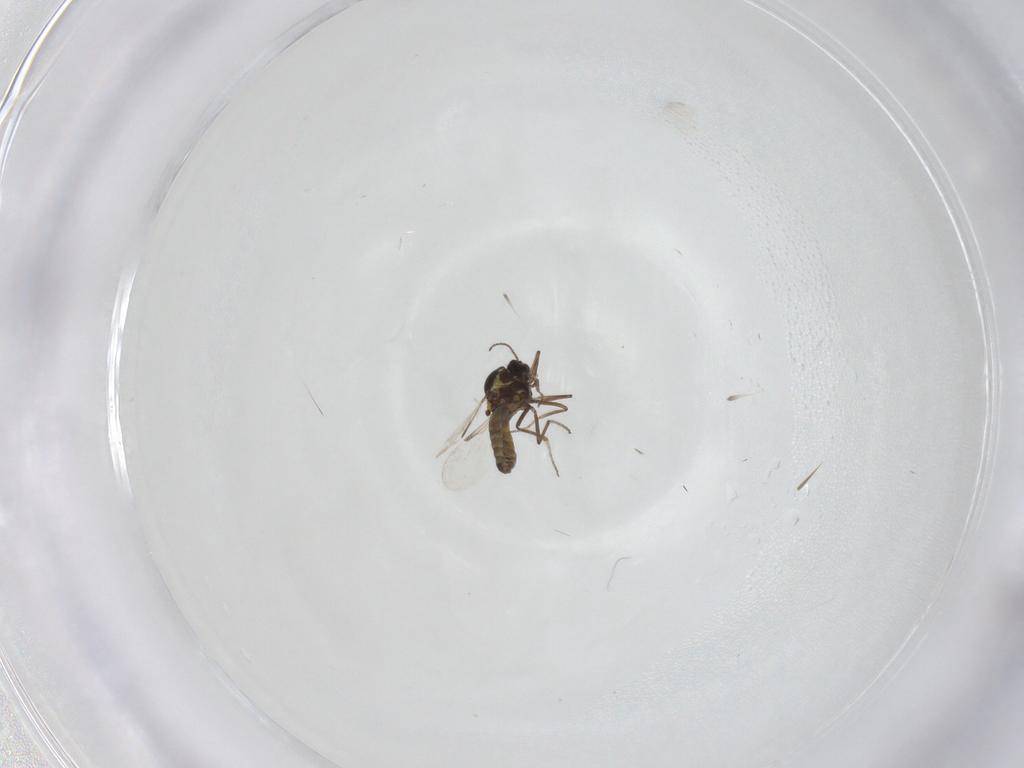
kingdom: Animalia
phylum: Arthropoda
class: Insecta
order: Diptera
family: Ceratopogonidae
